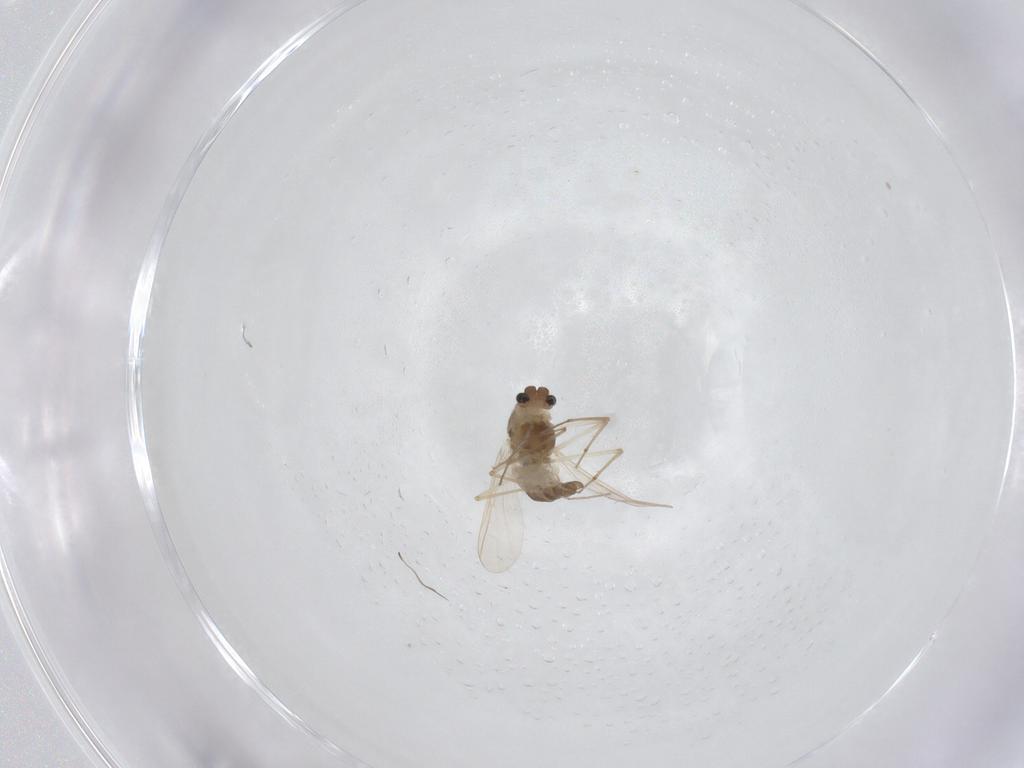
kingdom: Animalia
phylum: Arthropoda
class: Insecta
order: Diptera
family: Chironomidae
